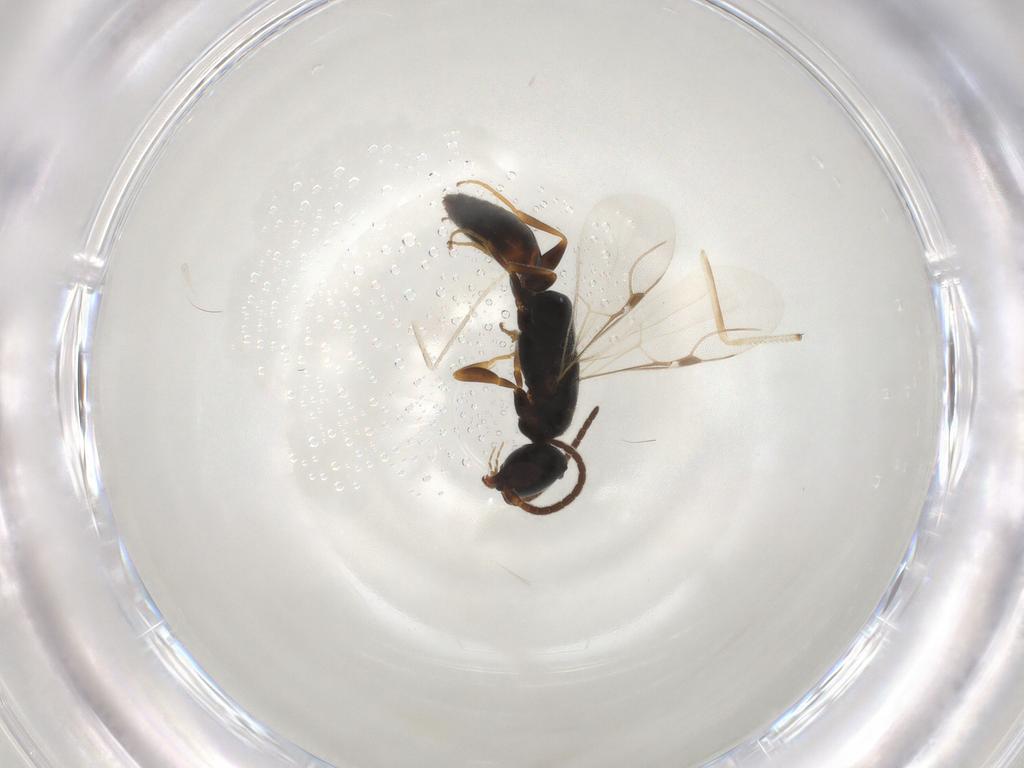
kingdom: Animalia
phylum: Arthropoda
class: Insecta
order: Hymenoptera
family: Bethylidae
